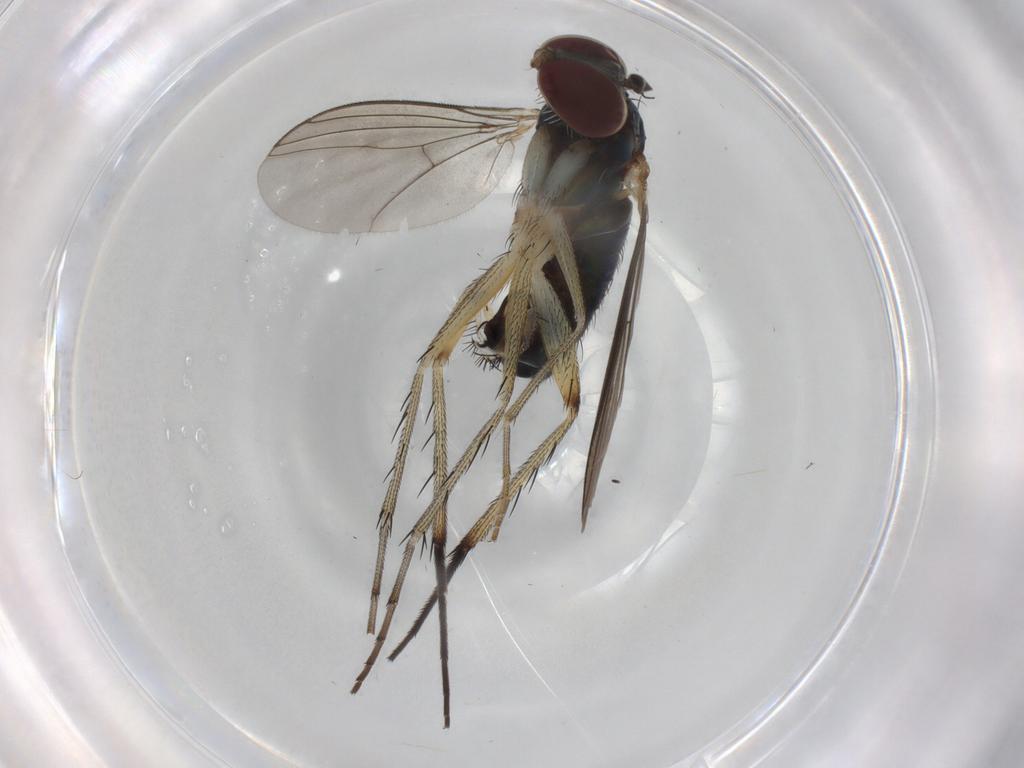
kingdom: Animalia
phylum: Arthropoda
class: Insecta
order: Diptera
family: Dolichopodidae
